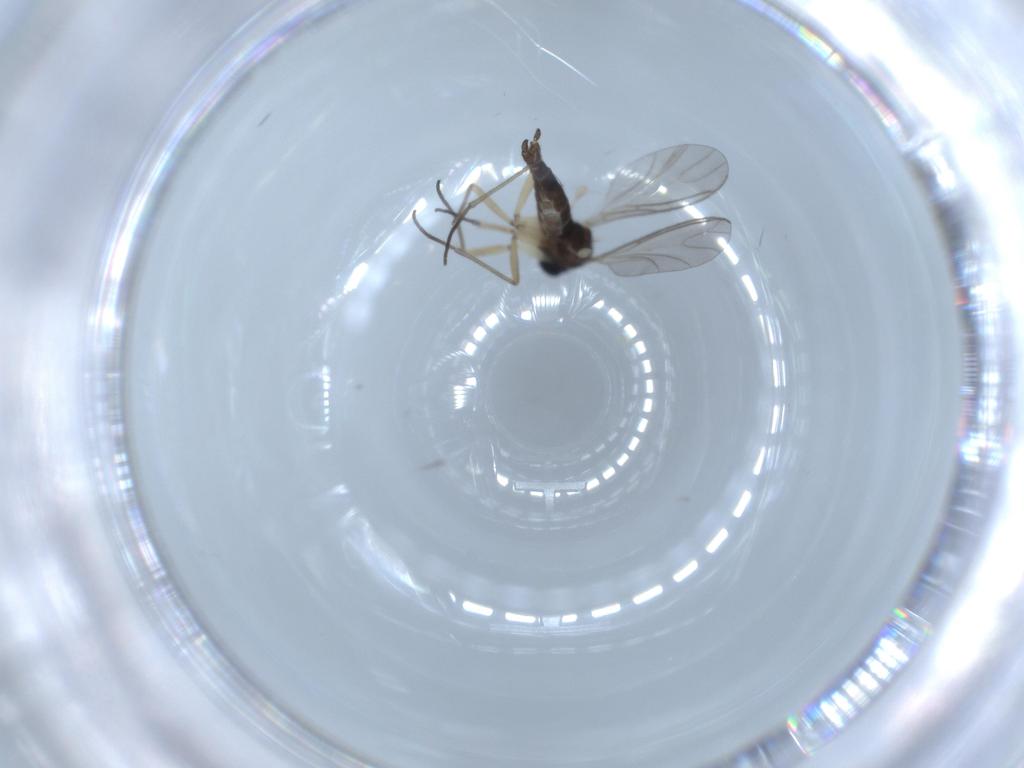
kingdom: Animalia
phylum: Arthropoda
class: Insecta
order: Diptera
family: Sciaridae
